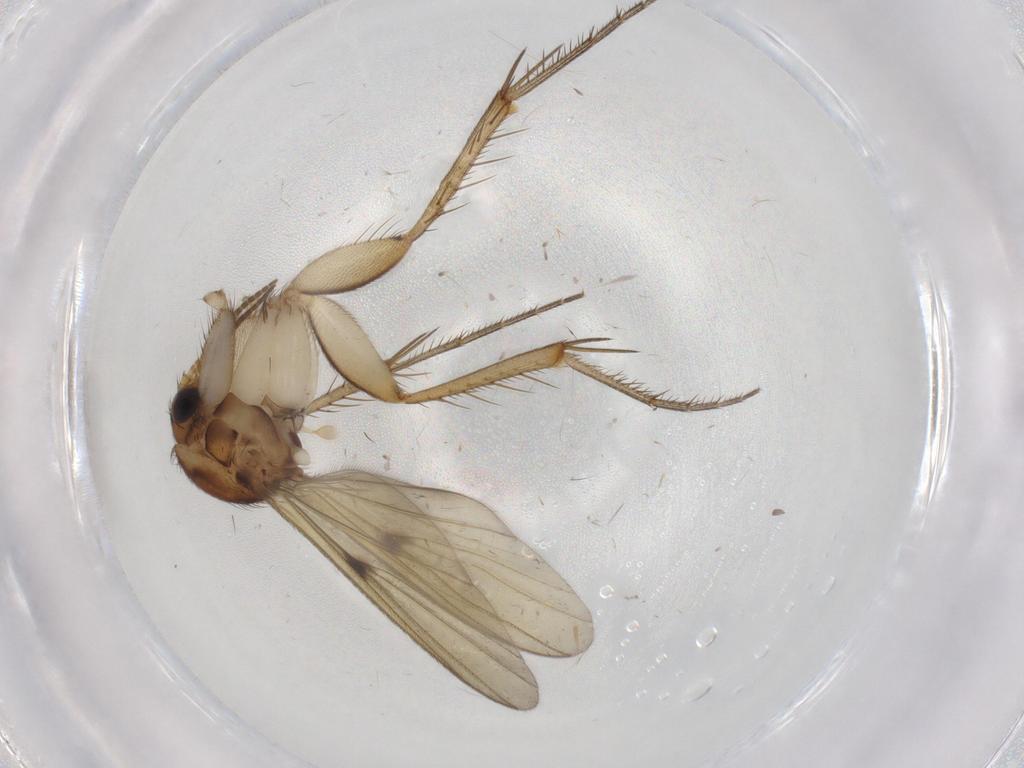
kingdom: Animalia
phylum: Arthropoda
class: Insecta
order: Diptera
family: Cecidomyiidae
